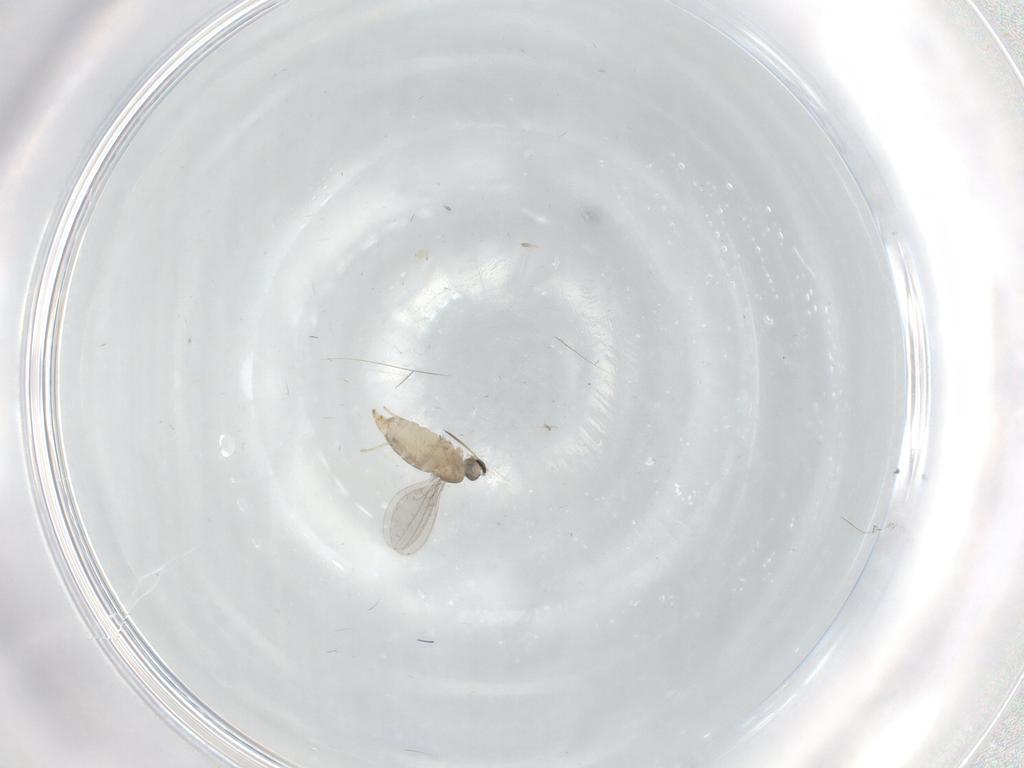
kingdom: Animalia
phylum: Arthropoda
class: Insecta
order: Diptera
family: Cecidomyiidae
